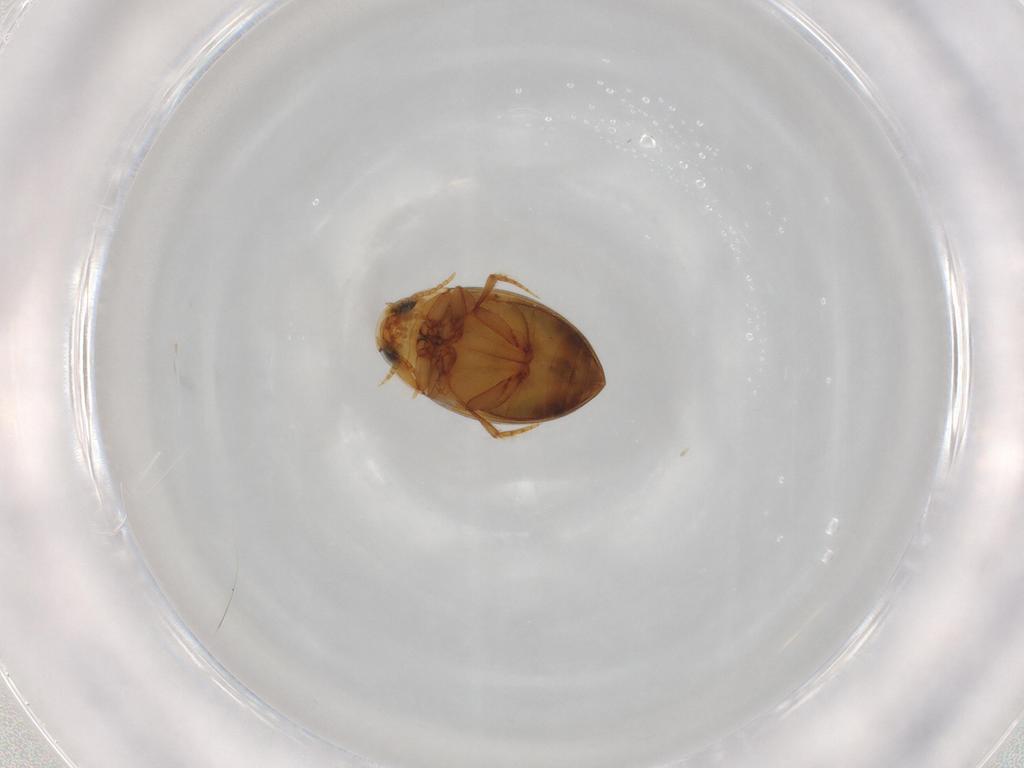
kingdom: Animalia
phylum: Arthropoda
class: Insecta
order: Coleoptera
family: Dytiscidae
